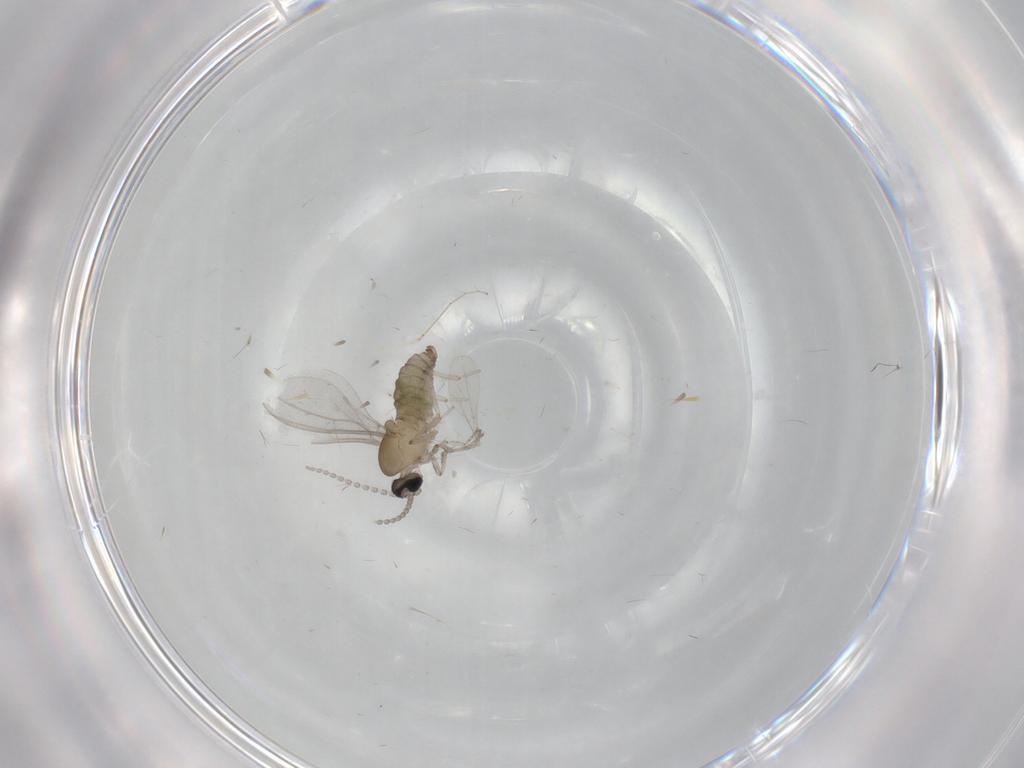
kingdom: Animalia
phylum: Arthropoda
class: Insecta
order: Diptera
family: Cecidomyiidae
